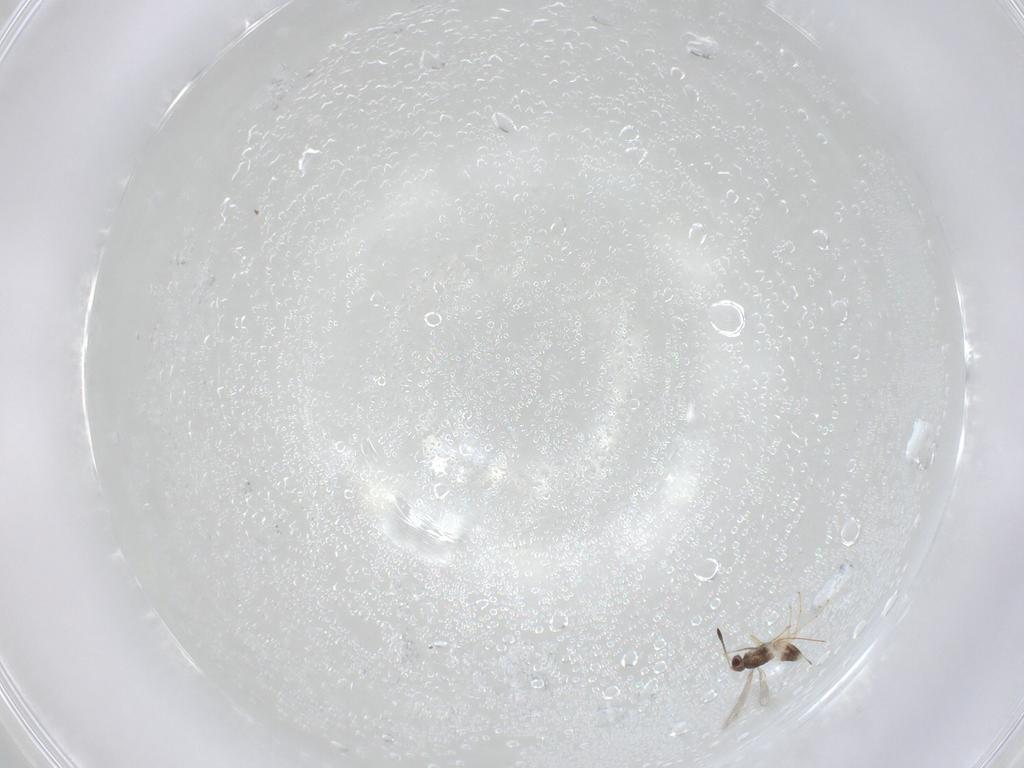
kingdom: Animalia
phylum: Arthropoda
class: Insecta
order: Hymenoptera
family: Mymaridae
